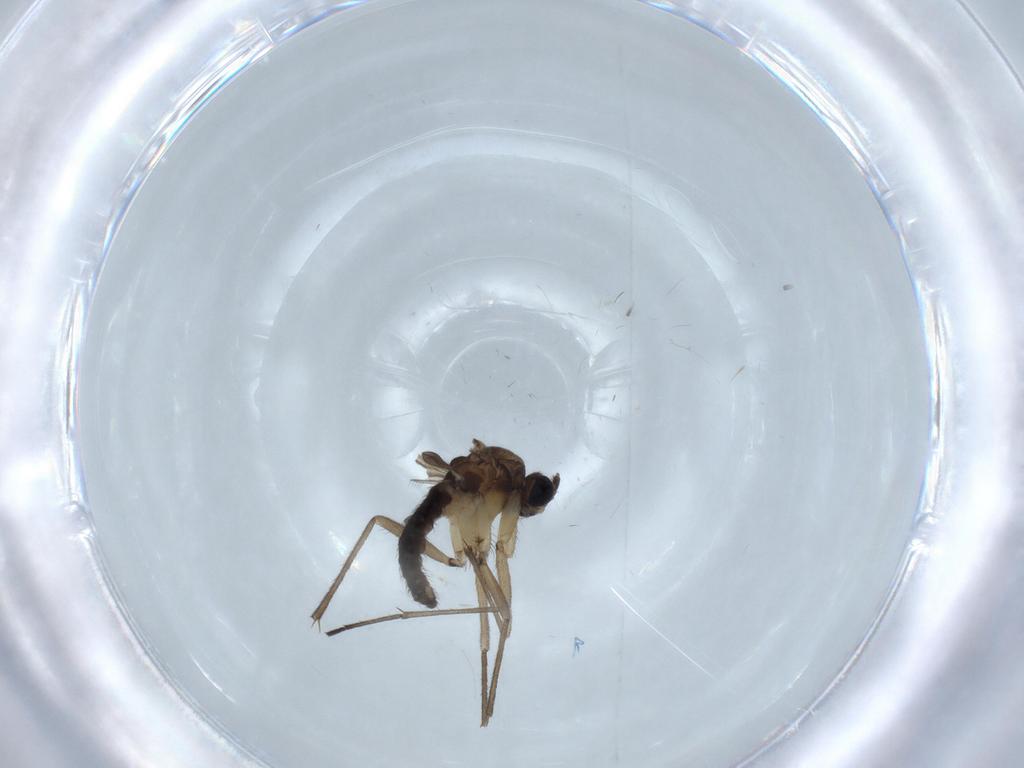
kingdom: Animalia
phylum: Arthropoda
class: Insecta
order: Diptera
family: Sciaridae
